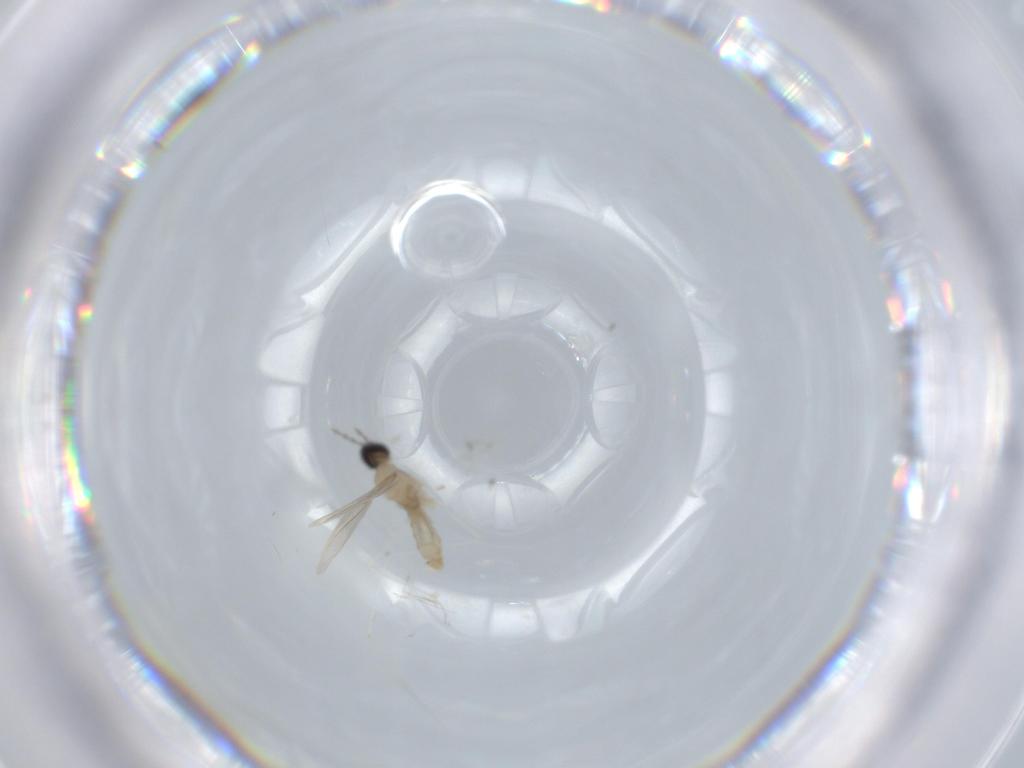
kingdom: Animalia
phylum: Arthropoda
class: Insecta
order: Diptera
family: Cecidomyiidae
